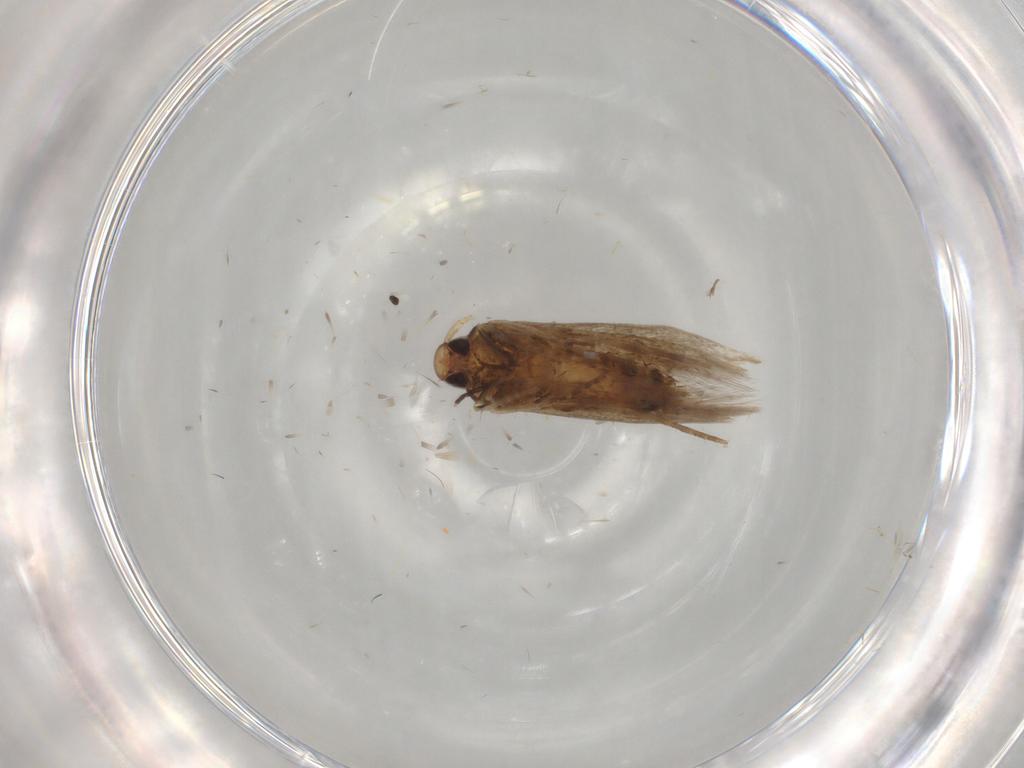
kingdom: Animalia
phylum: Arthropoda
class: Insecta
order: Lepidoptera
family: Cosmopterigidae
